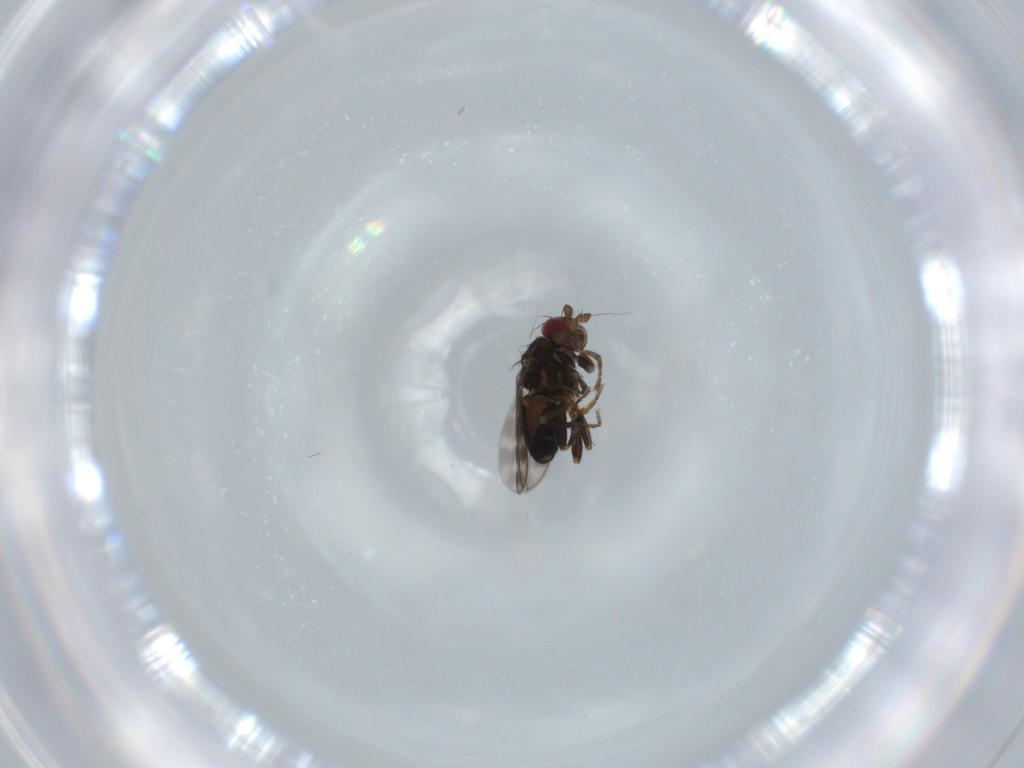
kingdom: Animalia
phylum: Arthropoda
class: Insecta
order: Diptera
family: Sphaeroceridae
